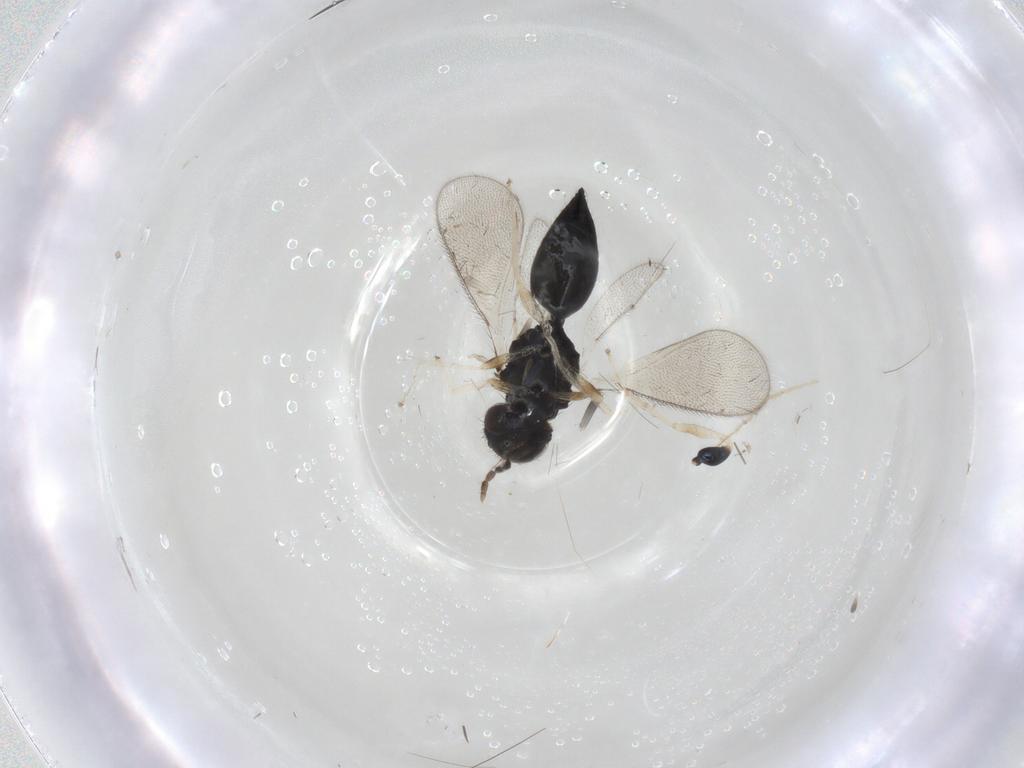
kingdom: Animalia
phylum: Arthropoda
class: Insecta
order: Hymenoptera
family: Eulophidae
